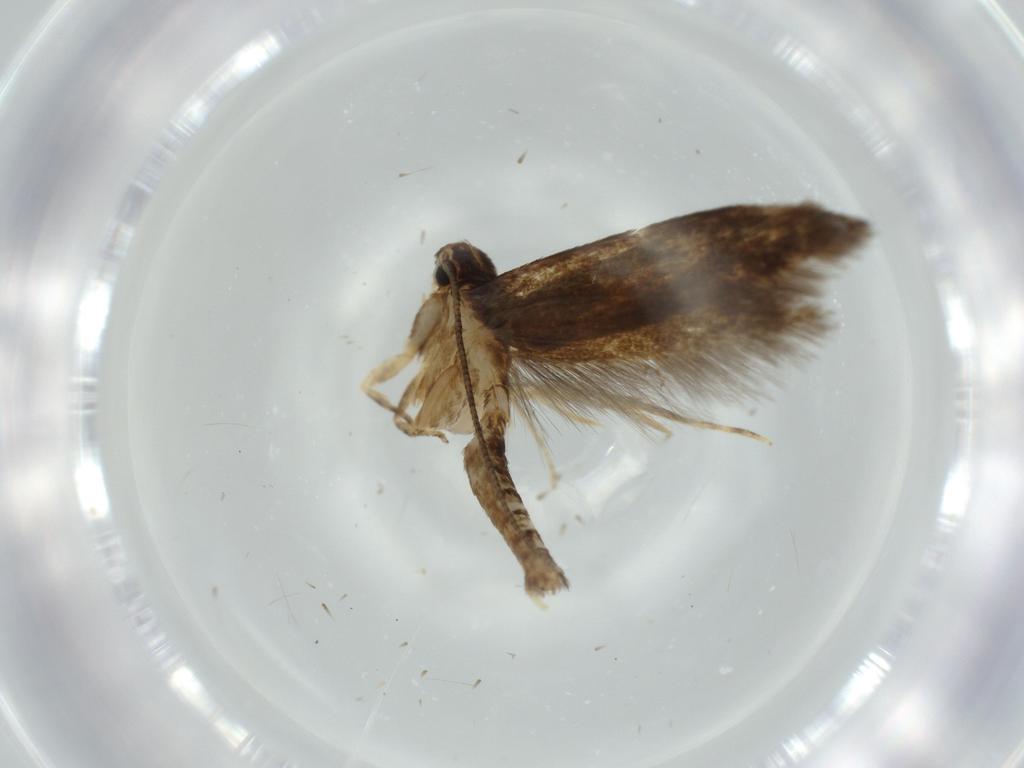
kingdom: Animalia
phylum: Arthropoda
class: Insecta
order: Lepidoptera
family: Tineidae
